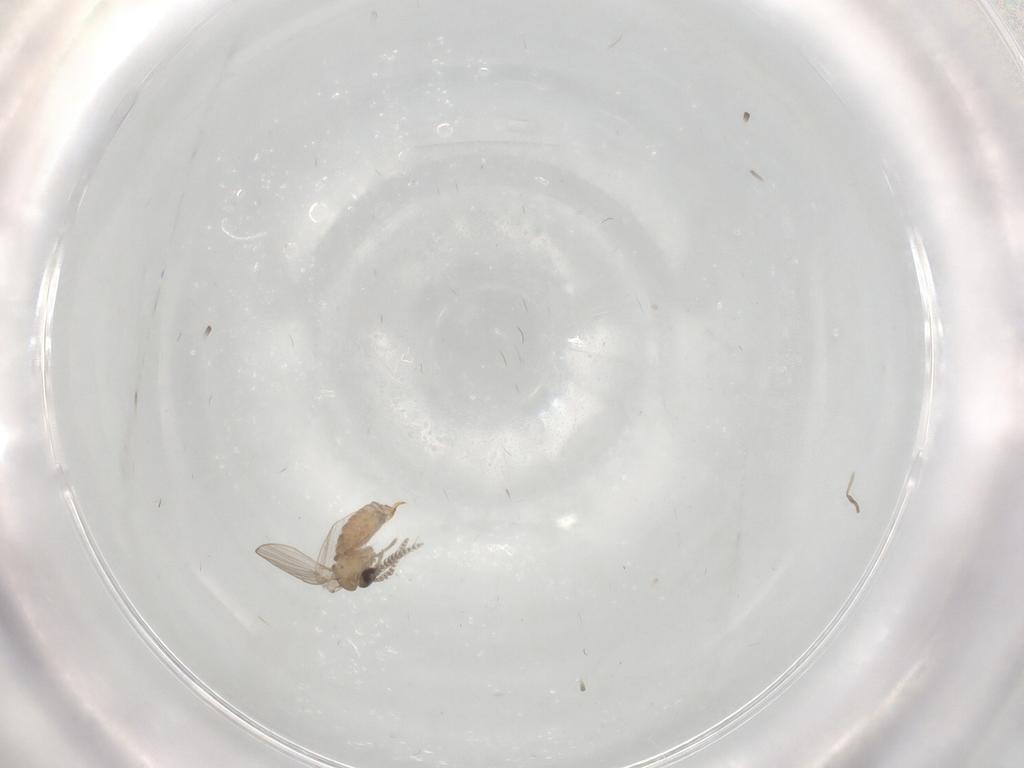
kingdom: Animalia
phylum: Arthropoda
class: Insecta
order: Diptera
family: Psychodidae
